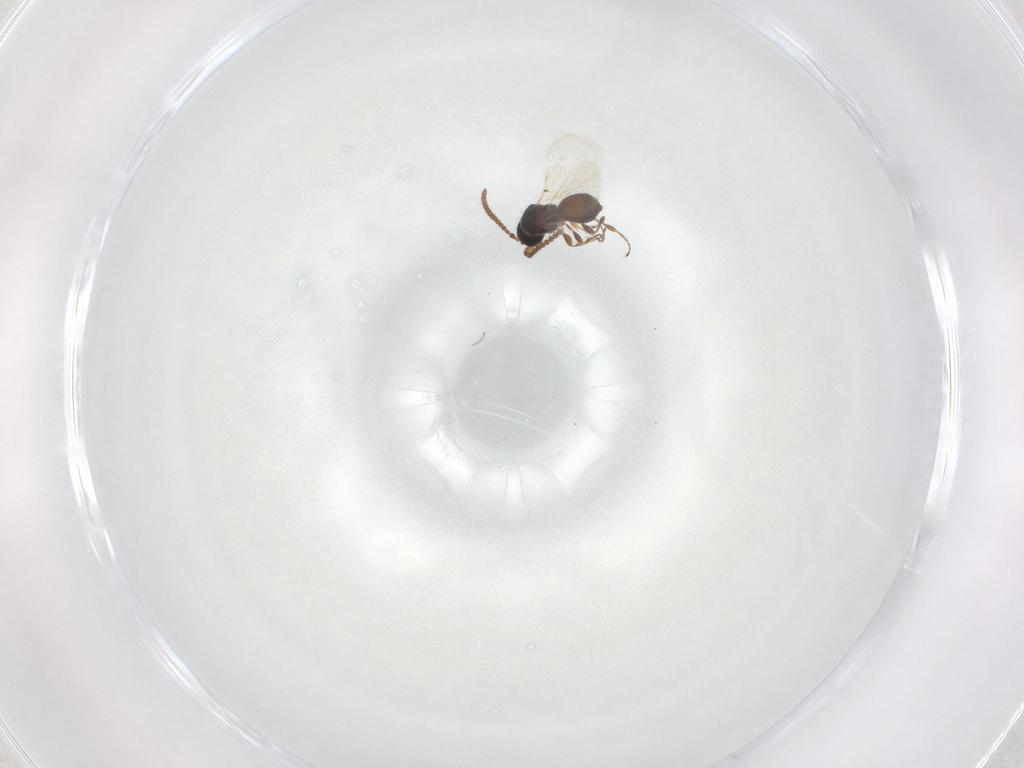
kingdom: Animalia
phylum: Arthropoda
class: Insecta
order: Hymenoptera
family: Diapriidae
